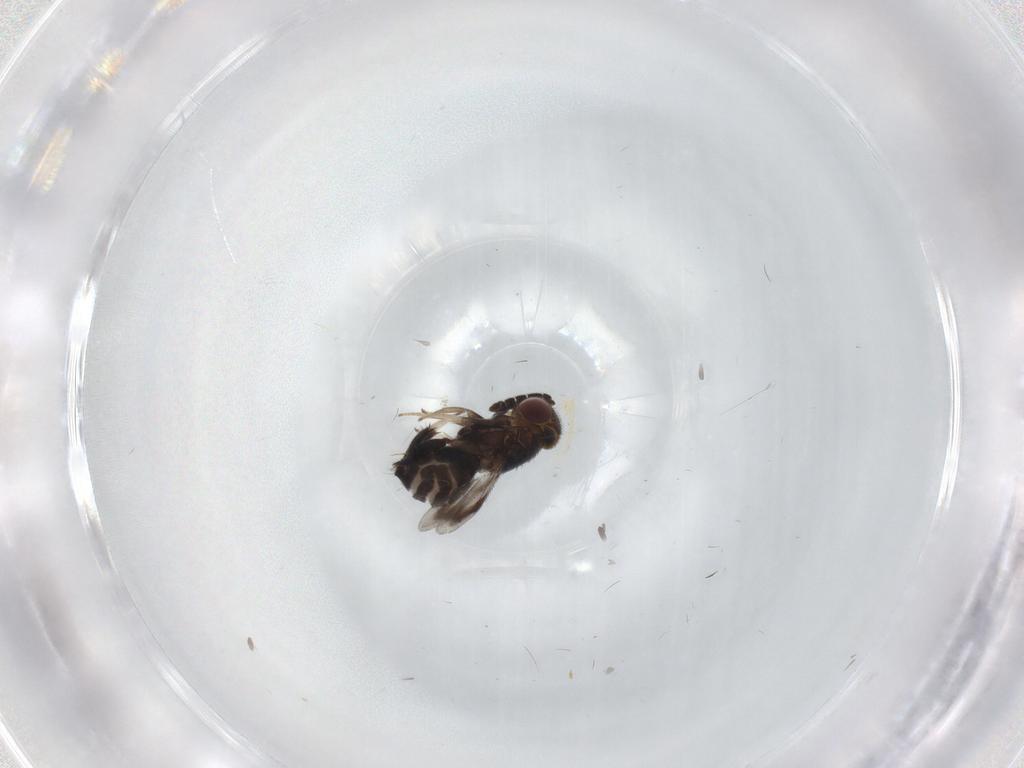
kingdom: Animalia
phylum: Arthropoda
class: Insecta
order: Hymenoptera
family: Aphelinidae
